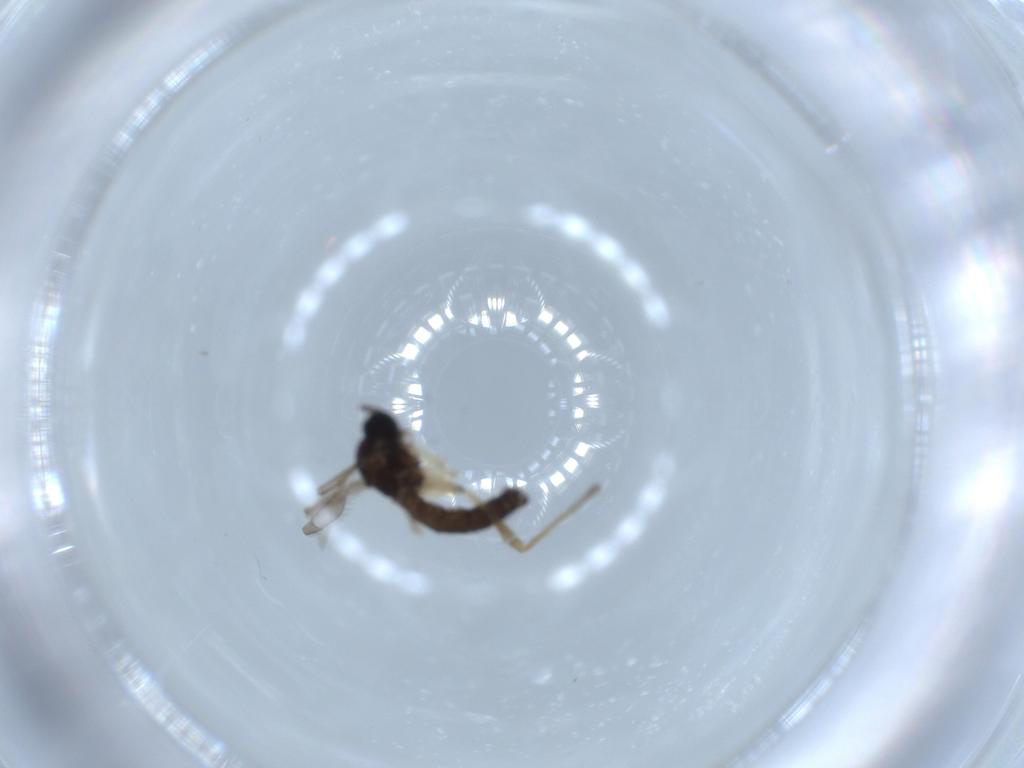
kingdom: Animalia
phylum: Arthropoda
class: Insecta
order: Diptera
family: Sciaridae
